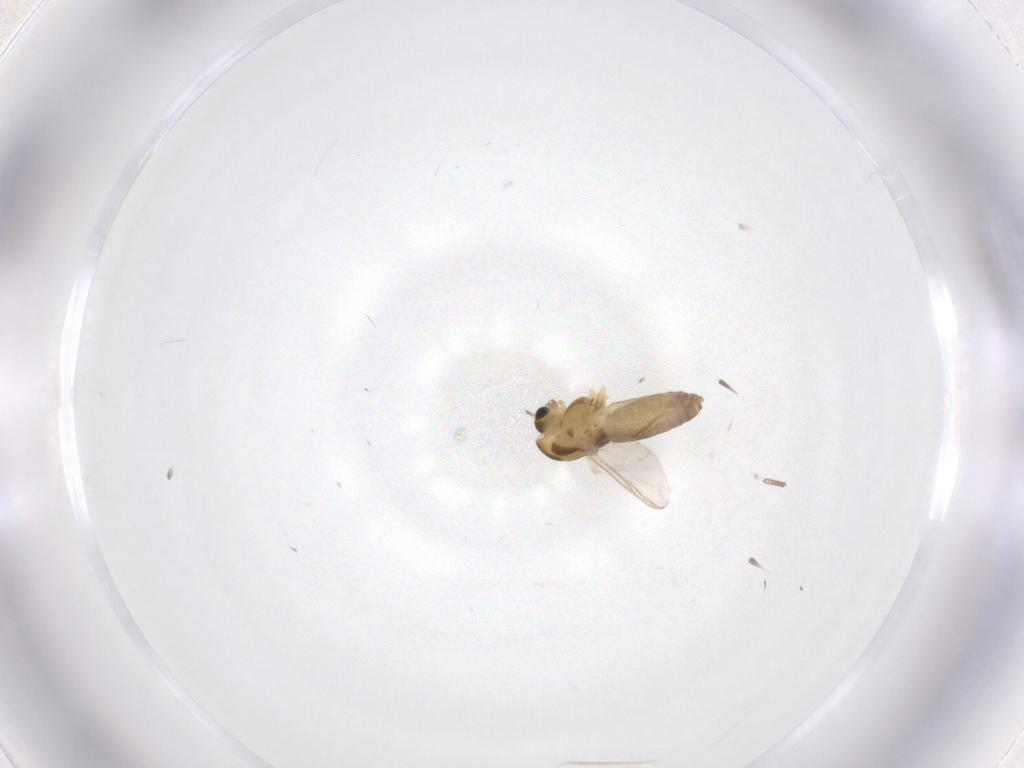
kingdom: Animalia
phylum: Arthropoda
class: Insecta
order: Diptera
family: Chironomidae
